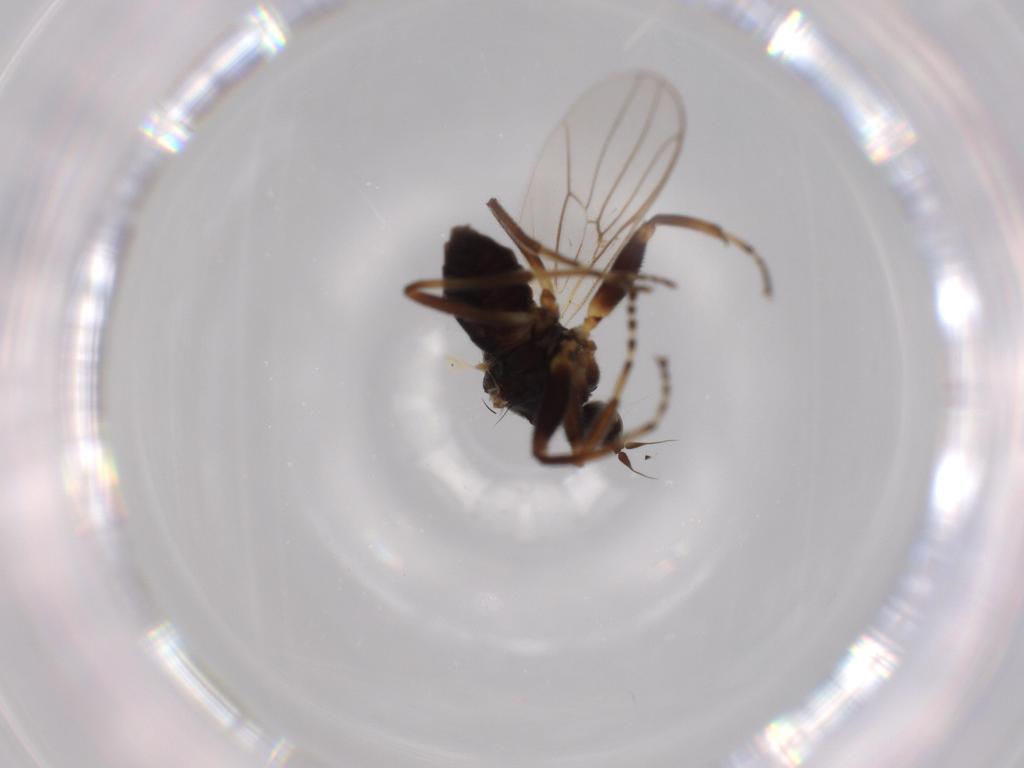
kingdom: Animalia
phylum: Arthropoda
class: Insecta
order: Diptera
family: Hybotidae
